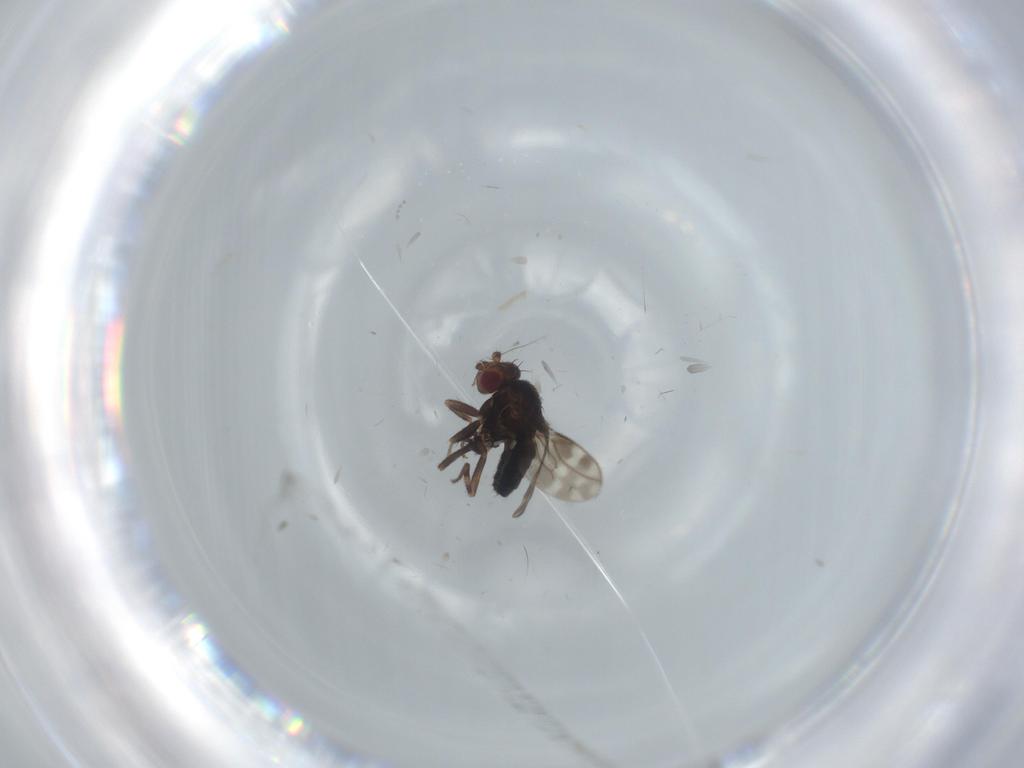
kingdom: Animalia
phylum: Arthropoda
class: Insecta
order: Diptera
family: Cecidomyiidae
